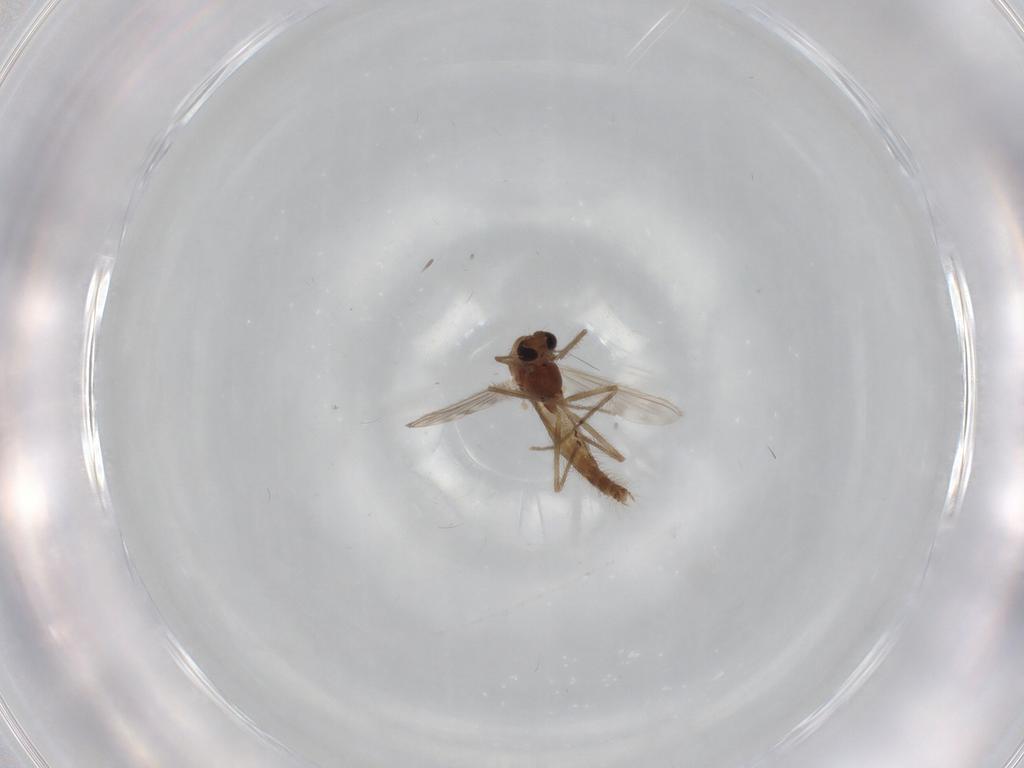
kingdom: Animalia
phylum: Arthropoda
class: Insecta
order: Diptera
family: Chironomidae
